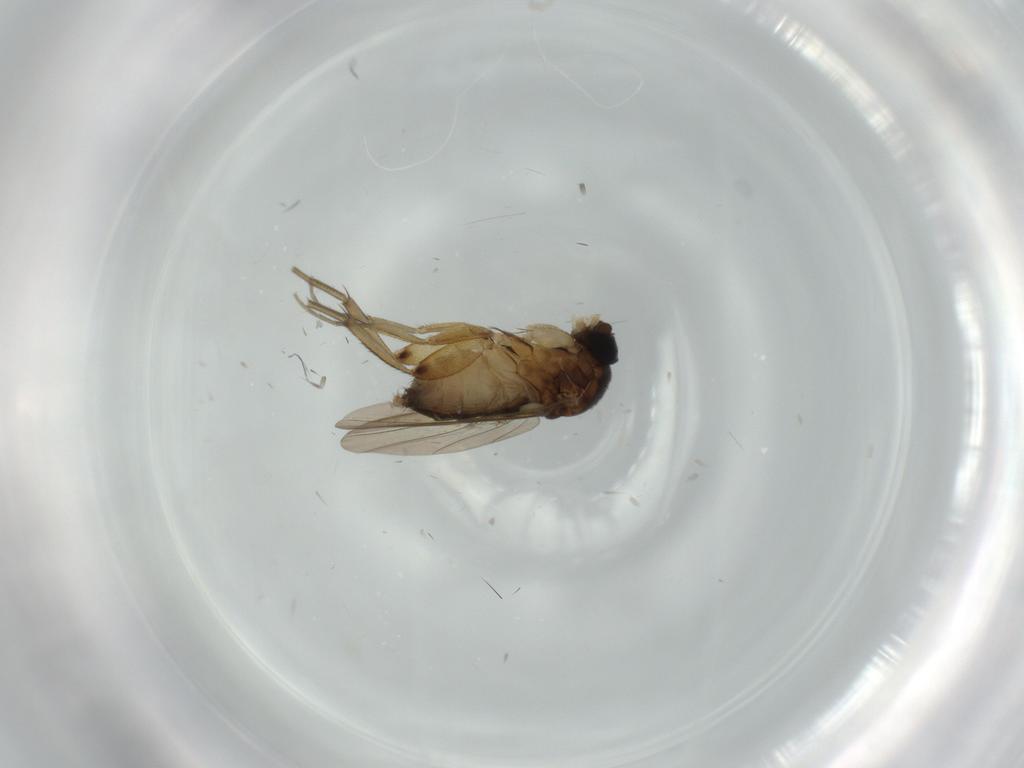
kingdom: Animalia
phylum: Arthropoda
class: Insecta
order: Diptera
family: Phoridae
